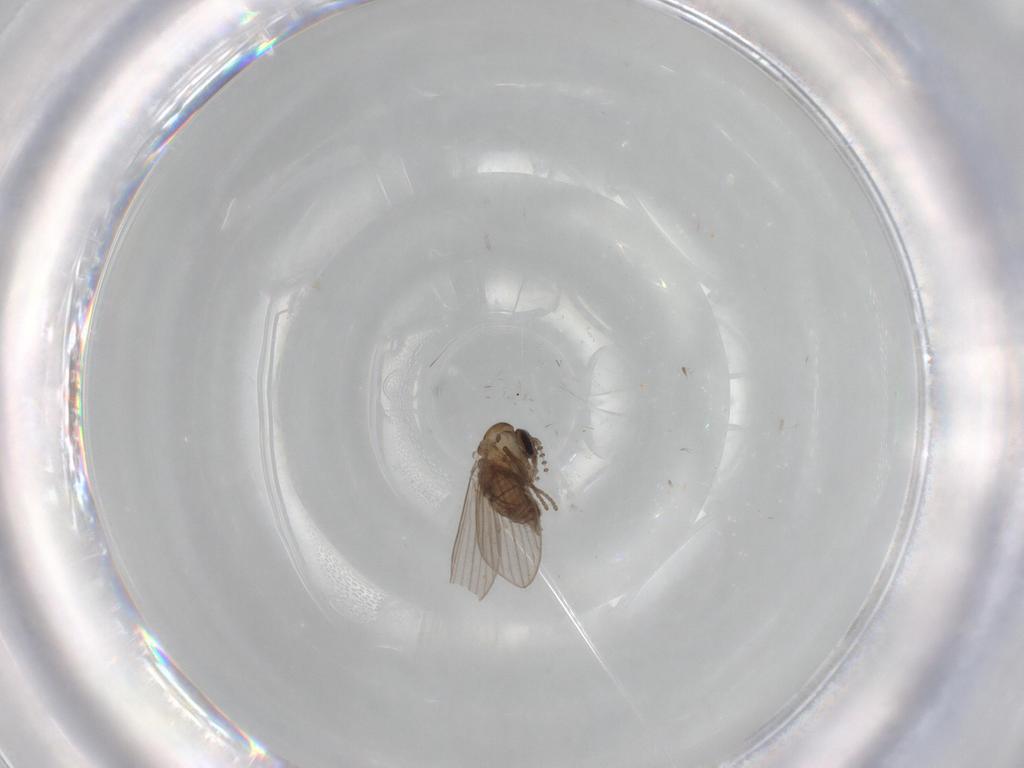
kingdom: Animalia
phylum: Arthropoda
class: Insecta
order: Diptera
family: Psychodidae
